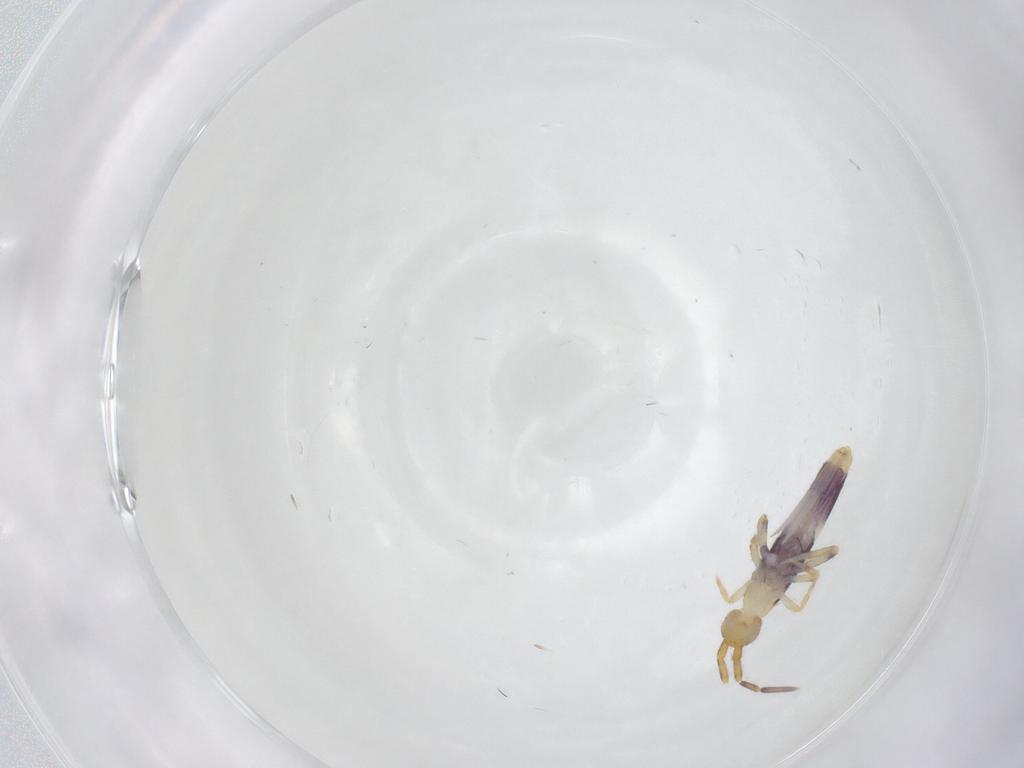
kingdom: Animalia
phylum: Arthropoda
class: Collembola
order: Entomobryomorpha
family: Entomobryidae
